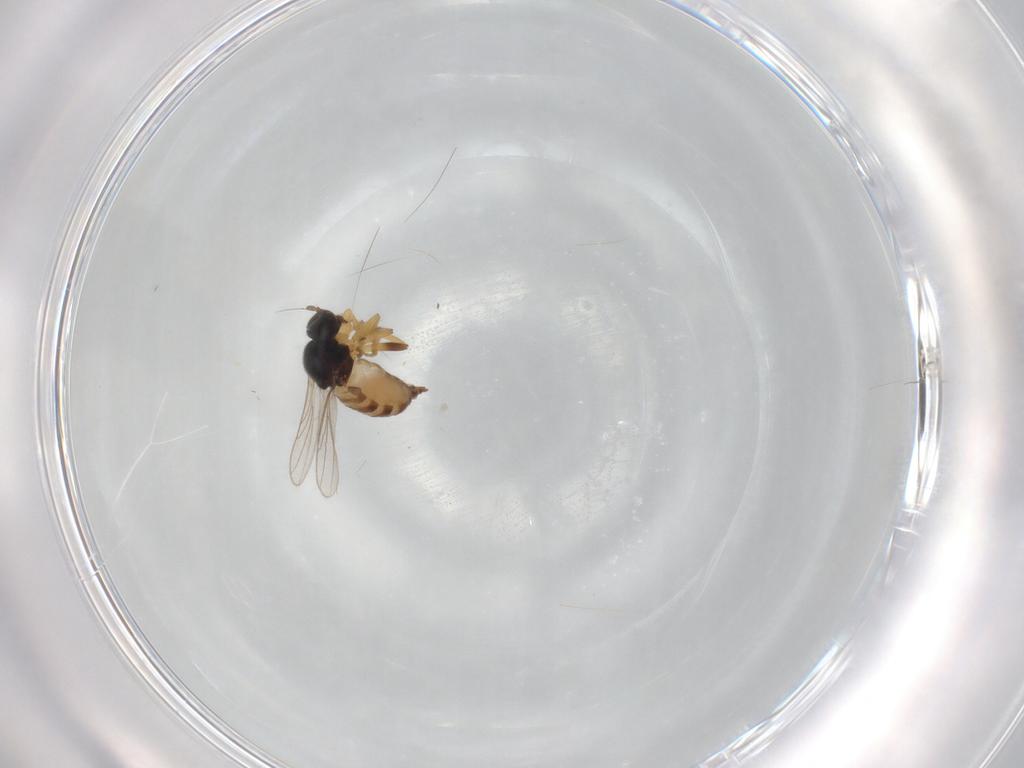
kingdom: Animalia
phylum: Arthropoda
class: Insecta
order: Diptera
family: Hybotidae
